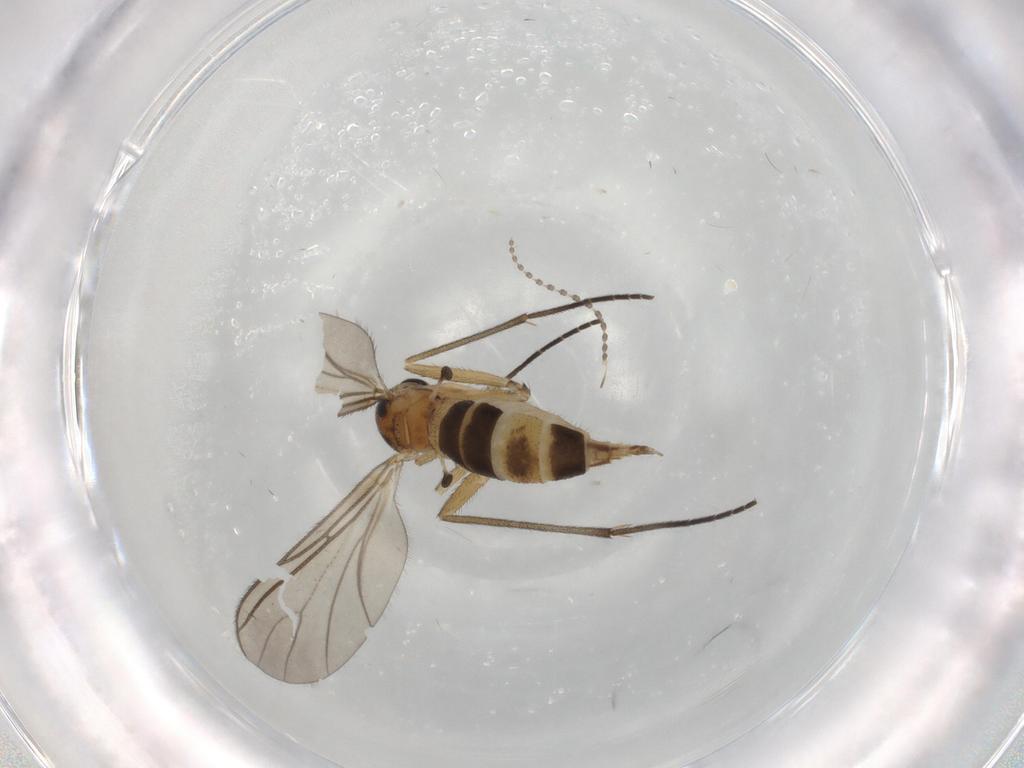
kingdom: Animalia
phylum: Arthropoda
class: Insecta
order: Diptera
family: Cecidomyiidae
